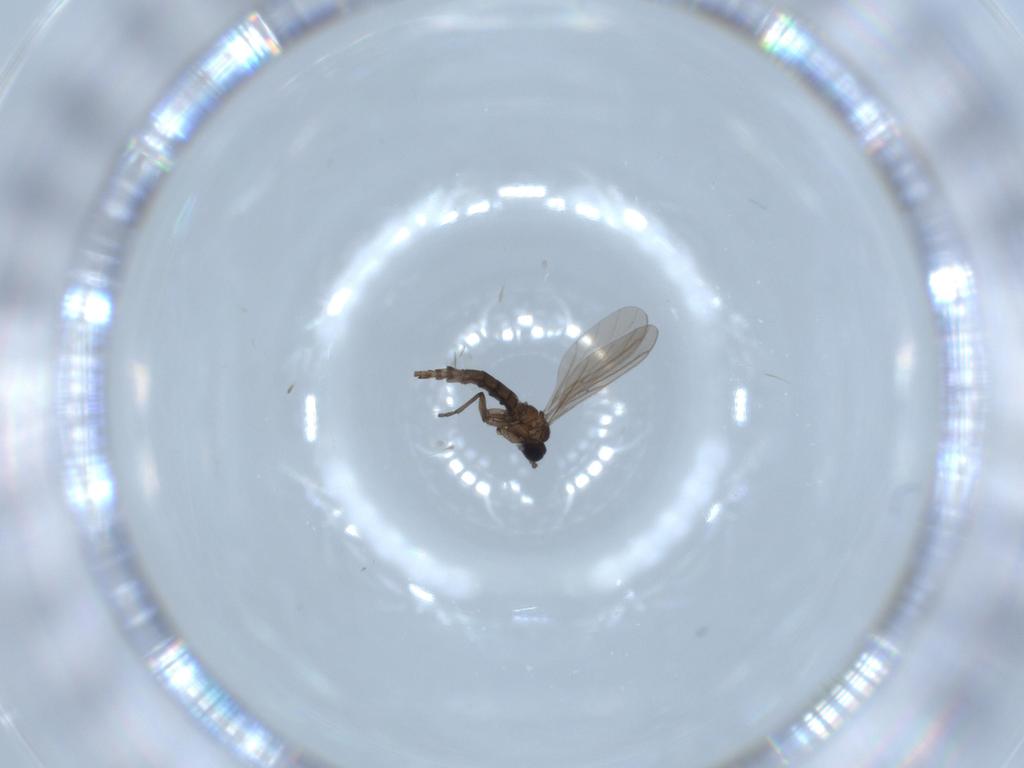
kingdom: Animalia
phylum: Arthropoda
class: Insecta
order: Diptera
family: Sciaridae
